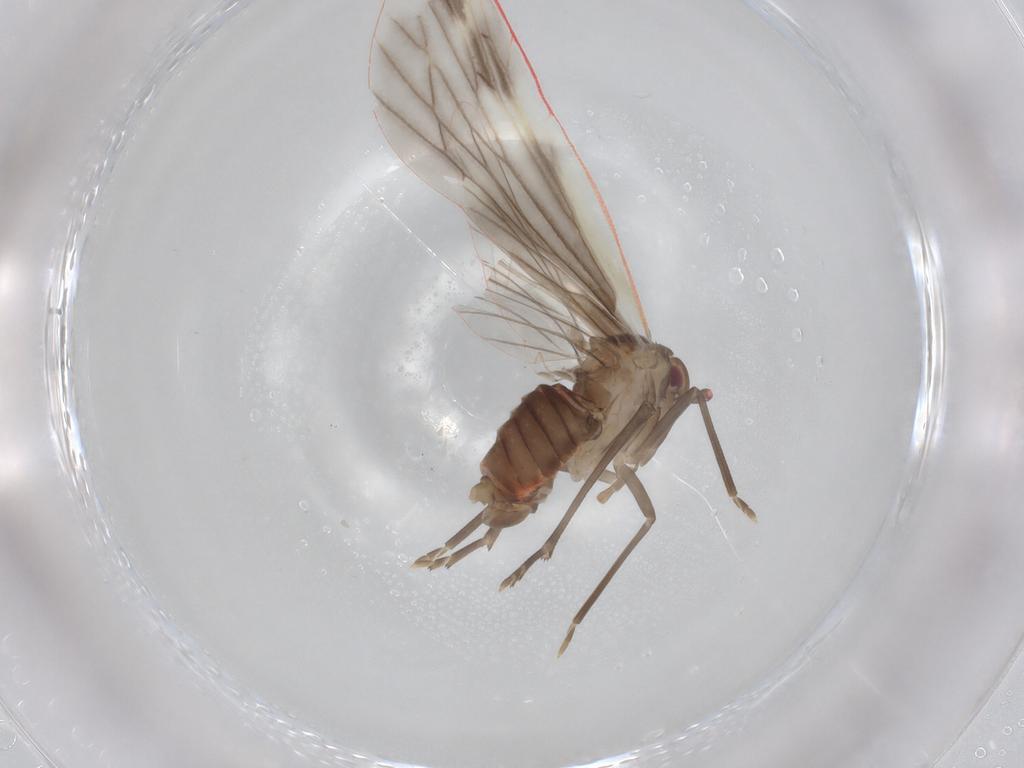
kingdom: Animalia
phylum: Arthropoda
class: Insecta
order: Hemiptera
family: Derbidae
